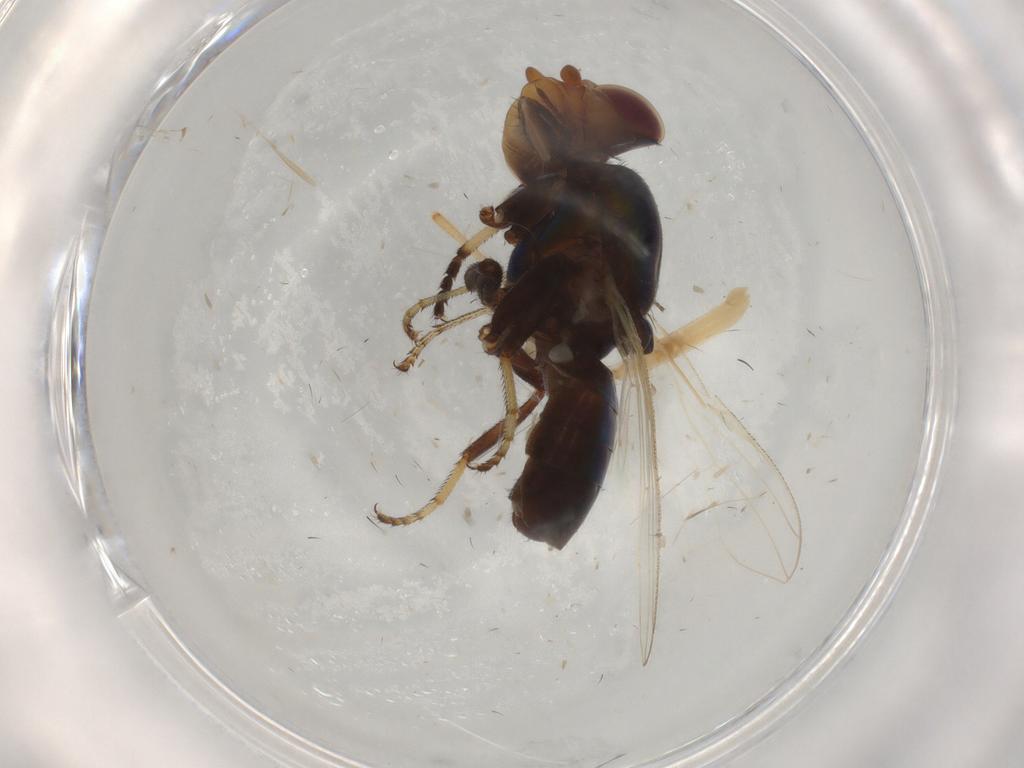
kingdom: Animalia
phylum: Arthropoda
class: Insecta
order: Diptera
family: Ulidiidae
